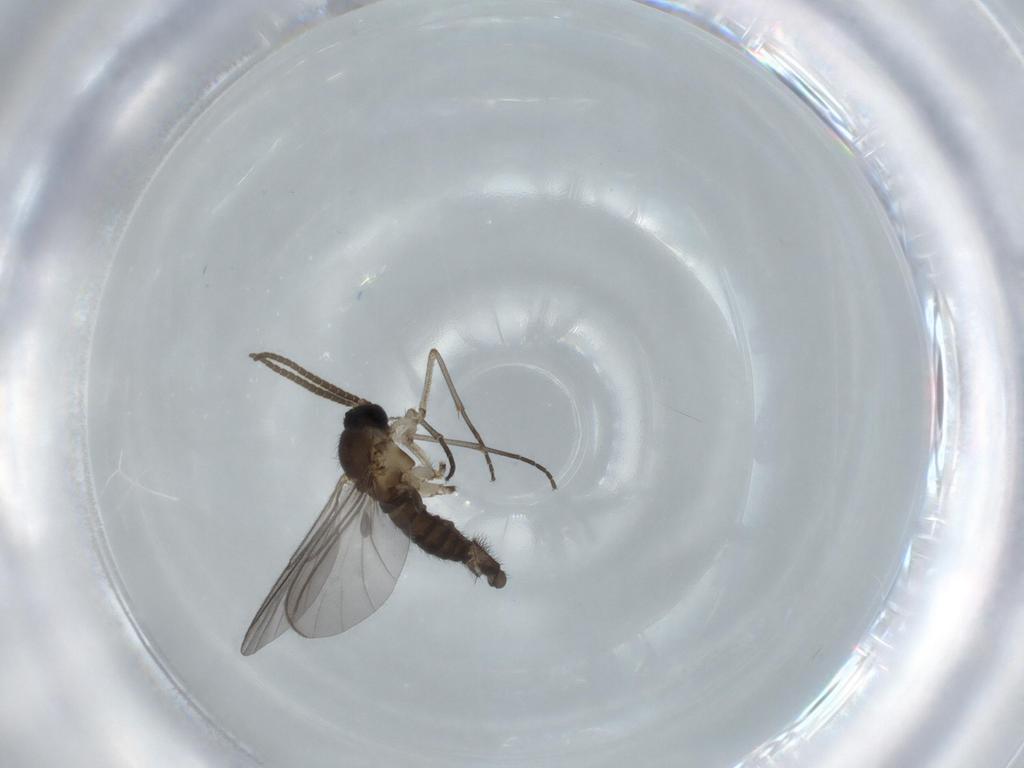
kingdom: Animalia
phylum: Arthropoda
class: Insecta
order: Diptera
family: Sciaridae
